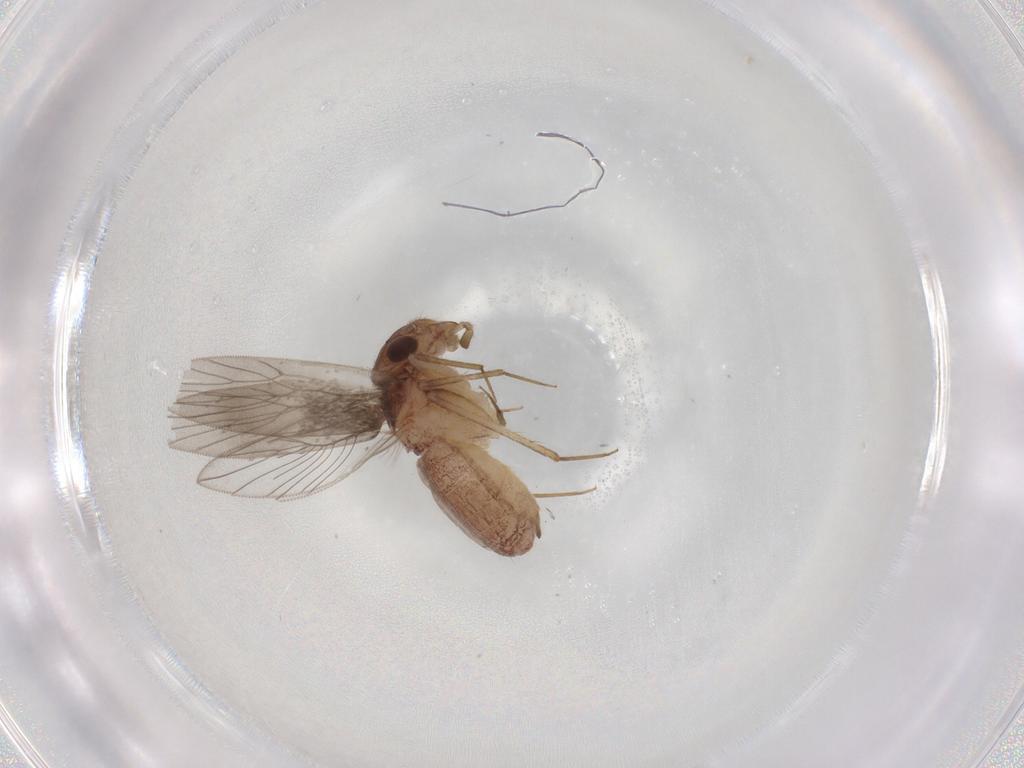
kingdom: Animalia
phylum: Arthropoda
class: Insecta
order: Psocodea
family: Lepidopsocidae
